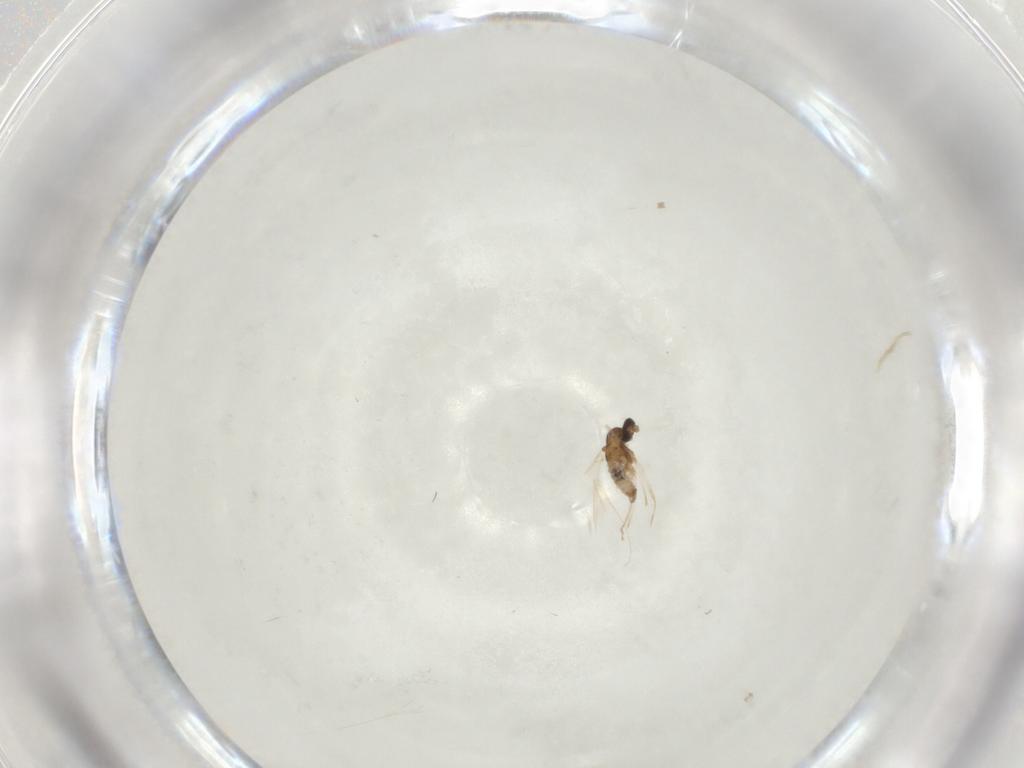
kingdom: Animalia
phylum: Arthropoda
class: Insecta
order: Diptera
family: Cecidomyiidae
